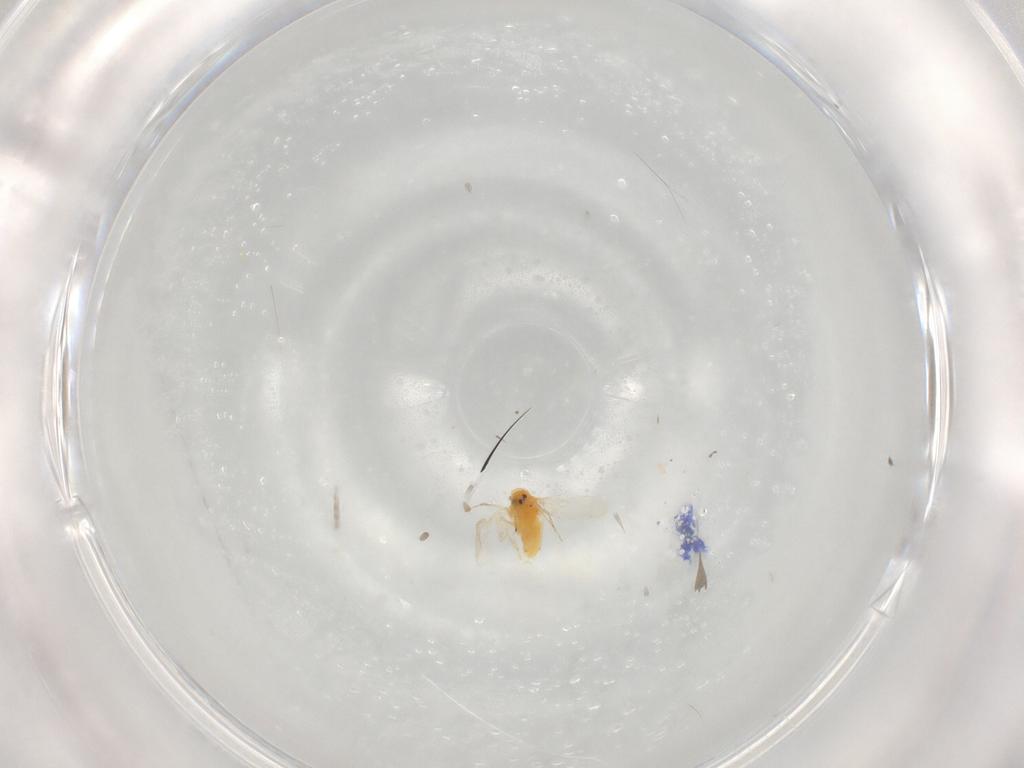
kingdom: Animalia
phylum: Arthropoda
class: Insecta
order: Hemiptera
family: Aleyrodidae
